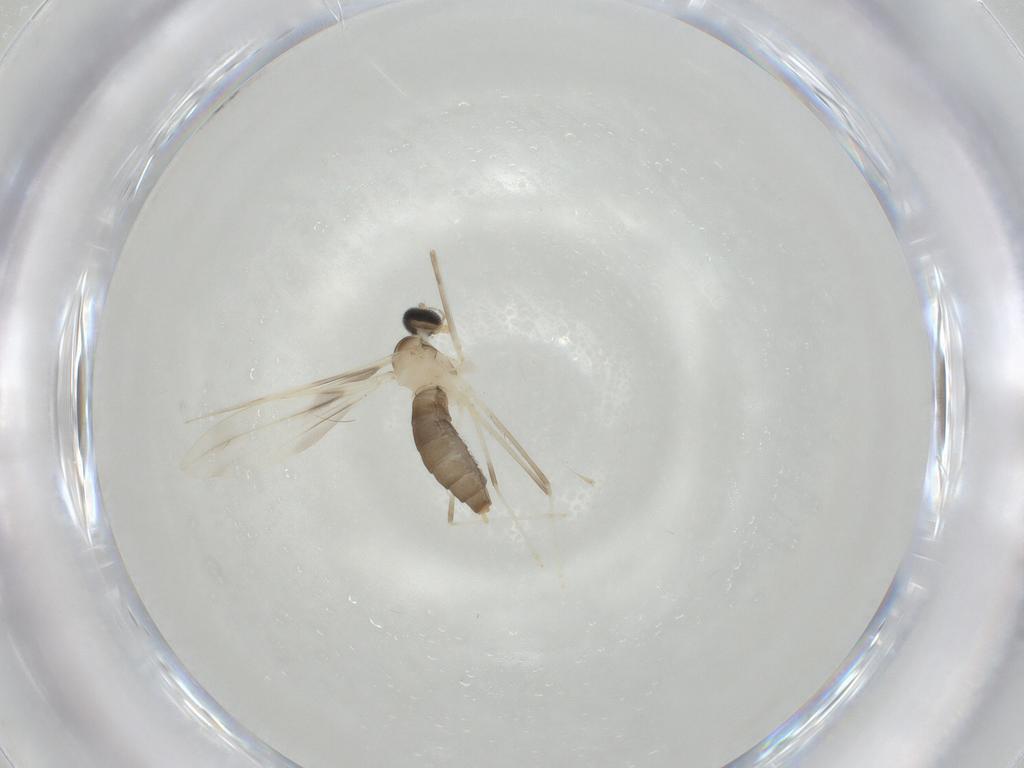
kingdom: Animalia
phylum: Arthropoda
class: Insecta
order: Diptera
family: Cecidomyiidae
